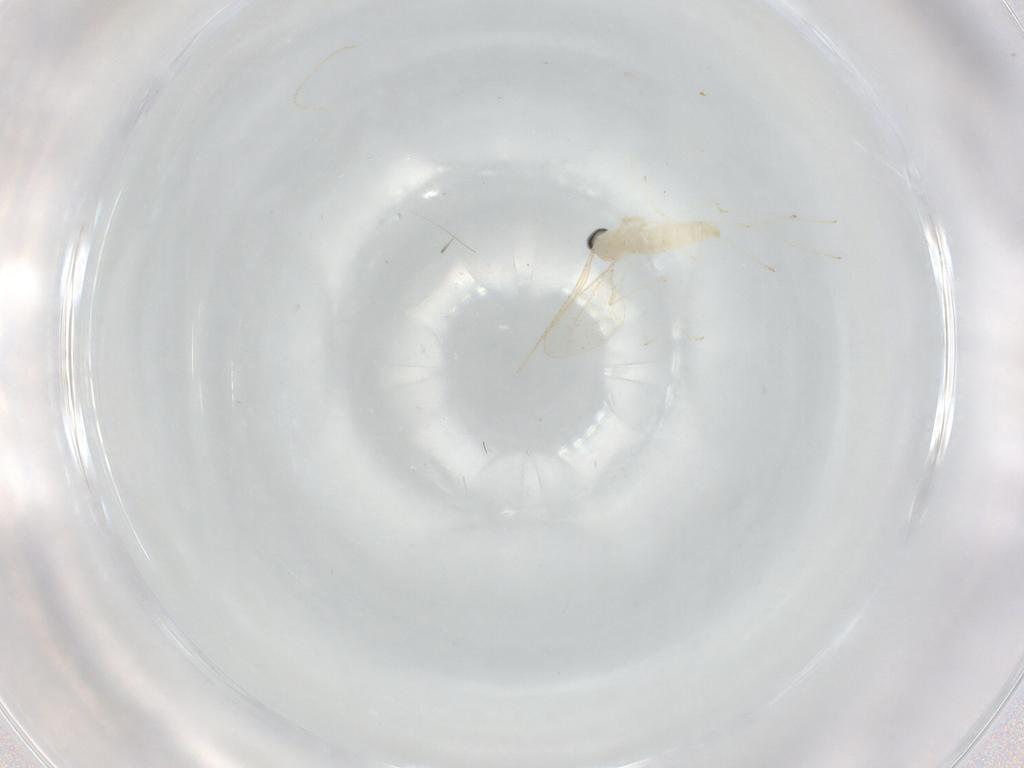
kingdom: Animalia
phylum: Arthropoda
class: Insecta
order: Diptera
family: Cecidomyiidae
